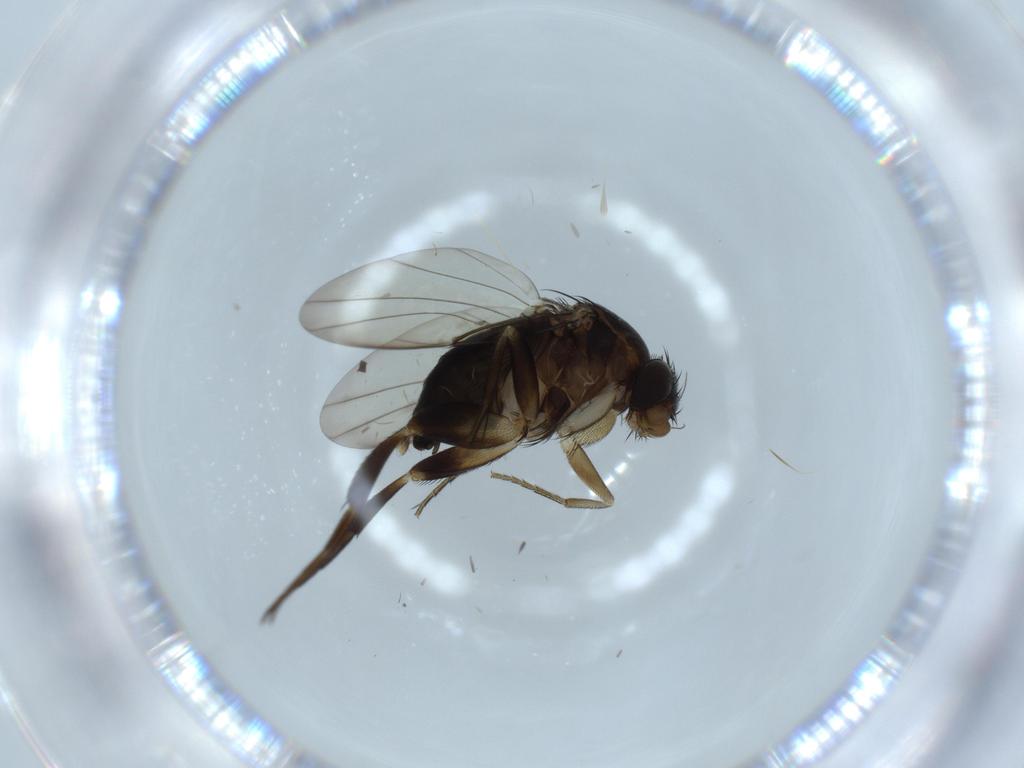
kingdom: Animalia
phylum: Arthropoda
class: Insecta
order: Diptera
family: Phoridae
